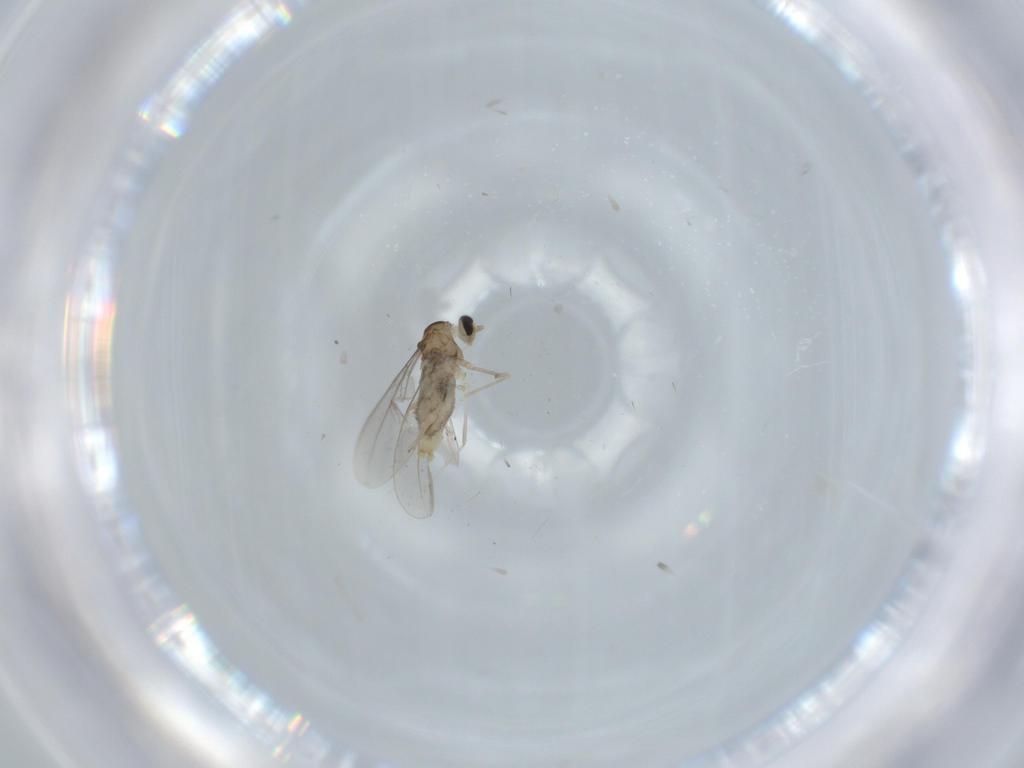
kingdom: Animalia
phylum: Arthropoda
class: Insecta
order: Diptera
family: Cecidomyiidae
